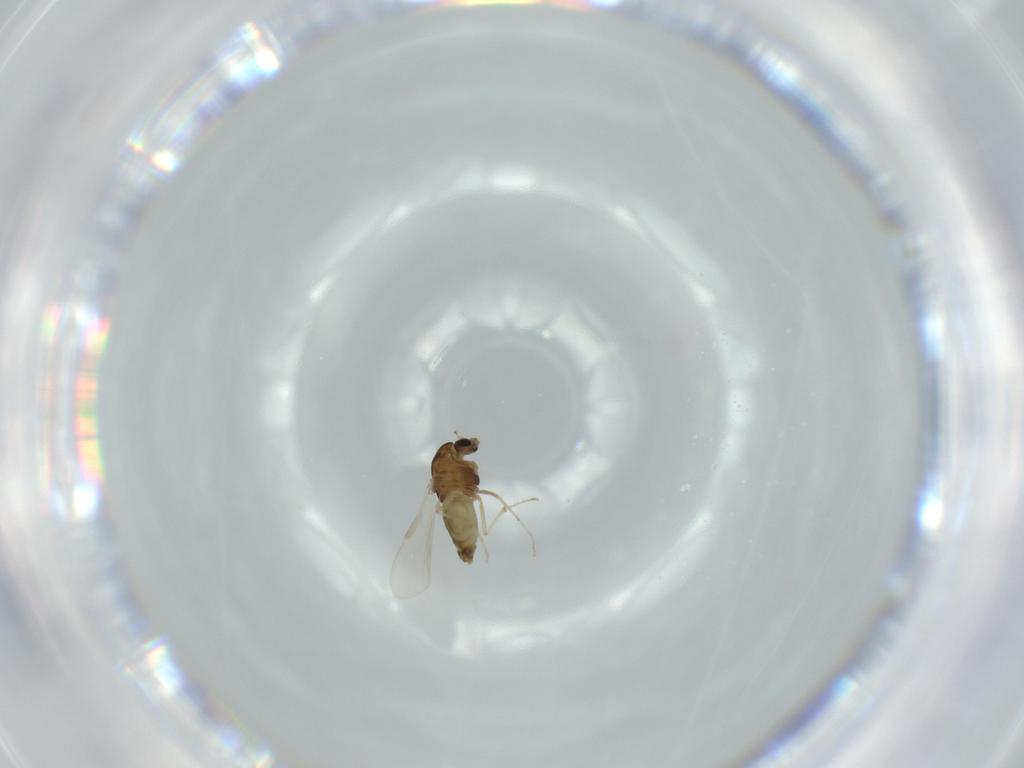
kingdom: Animalia
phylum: Arthropoda
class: Insecta
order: Diptera
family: Chironomidae
